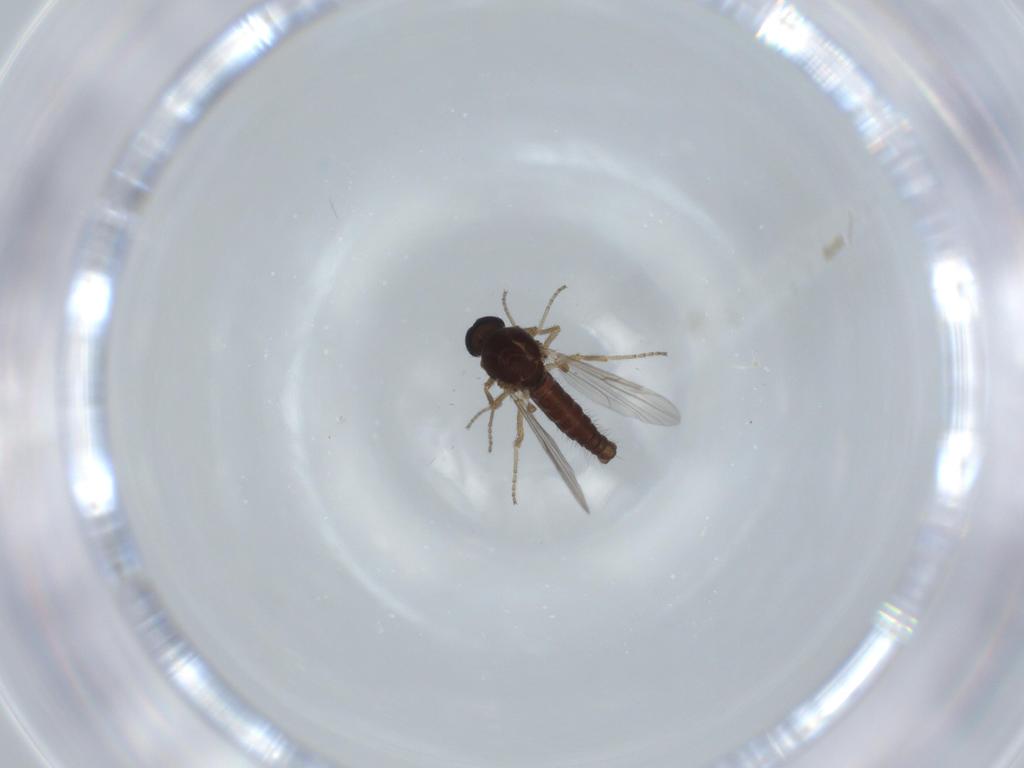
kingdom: Animalia
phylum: Arthropoda
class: Insecta
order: Diptera
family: Ceratopogonidae
